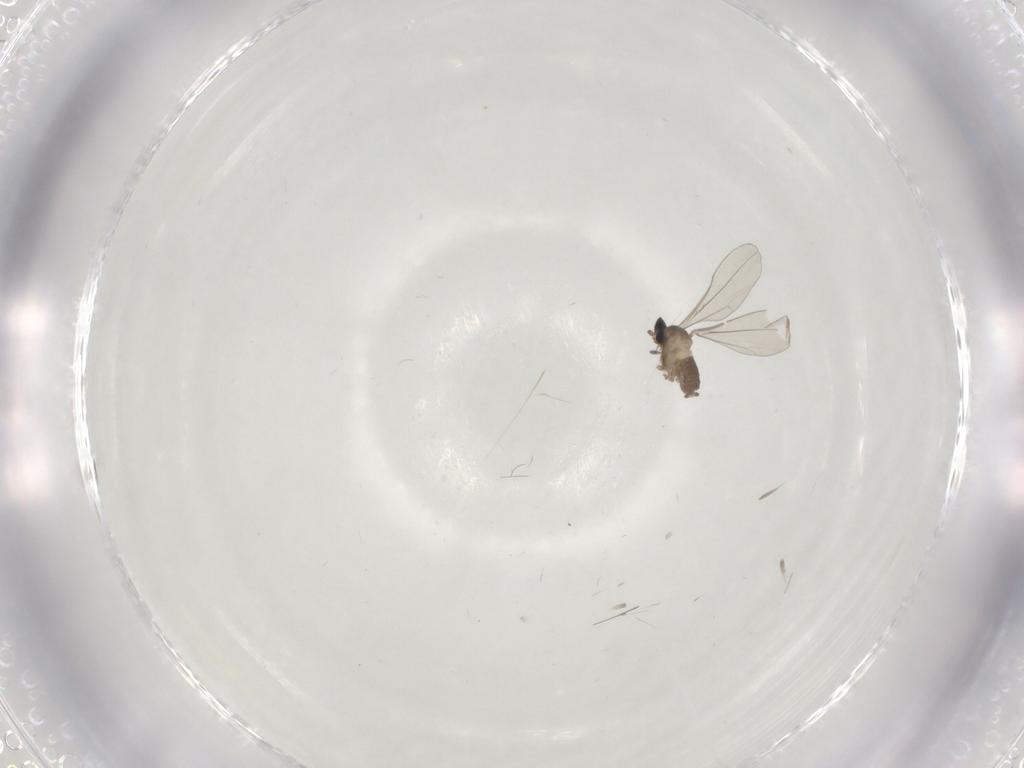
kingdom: Animalia
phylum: Arthropoda
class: Insecta
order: Diptera
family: Cecidomyiidae
